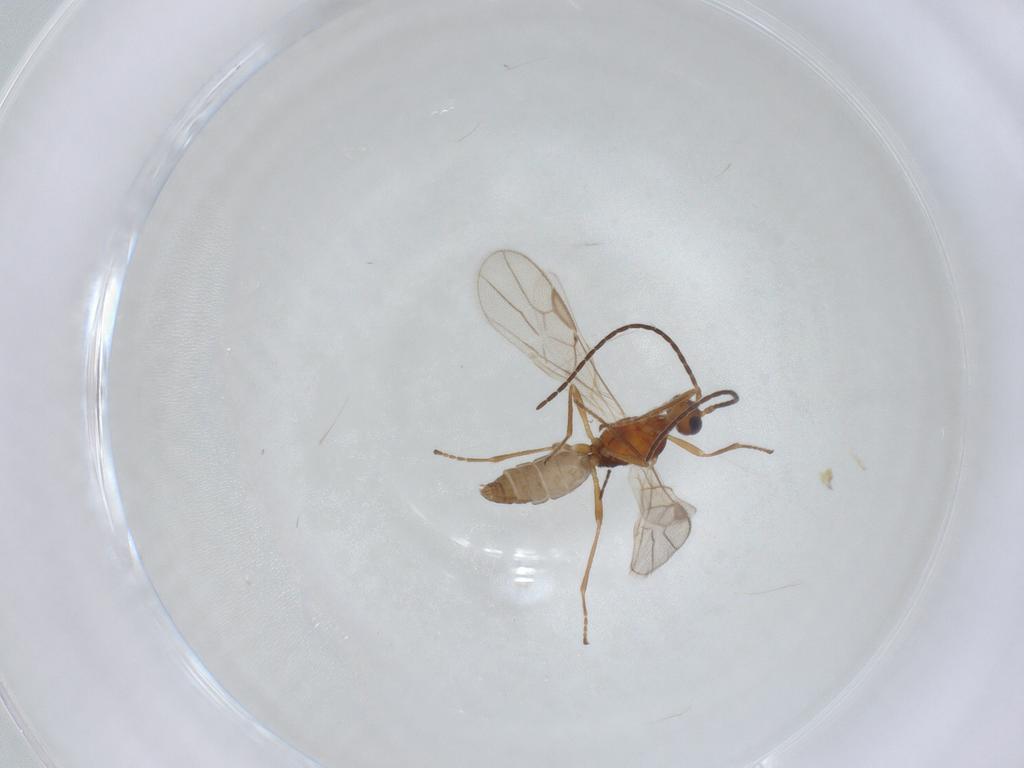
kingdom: Animalia
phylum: Arthropoda
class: Insecta
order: Hymenoptera
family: Braconidae
